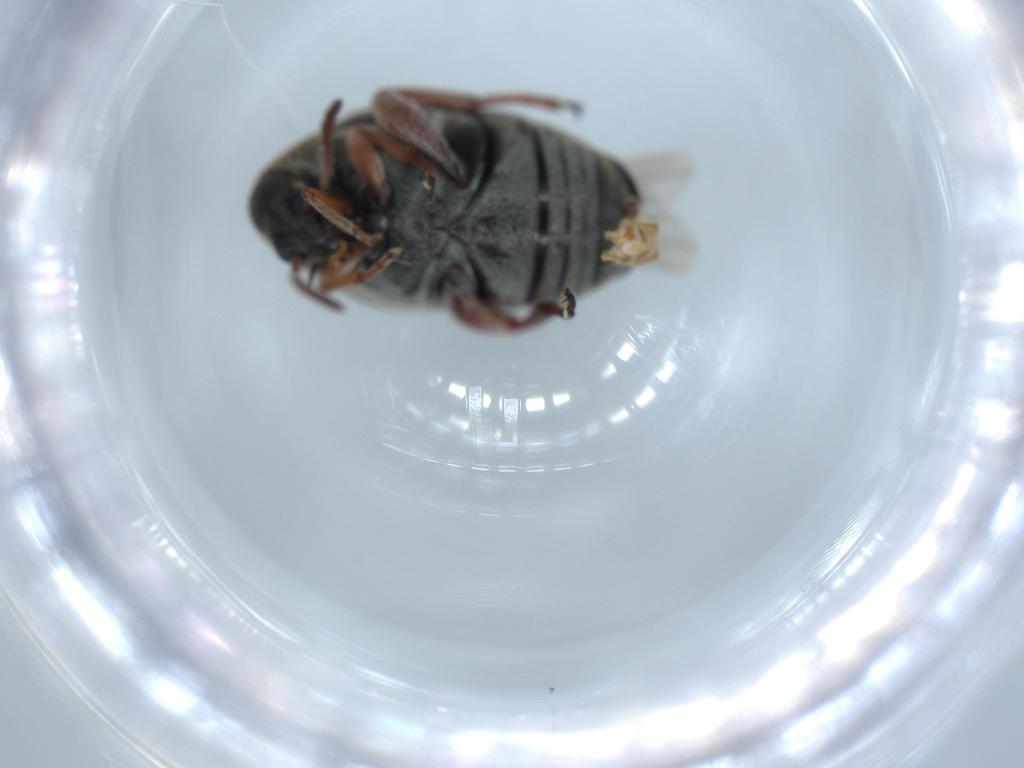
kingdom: Animalia
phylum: Arthropoda
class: Insecta
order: Coleoptera
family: Chrysomelidae
